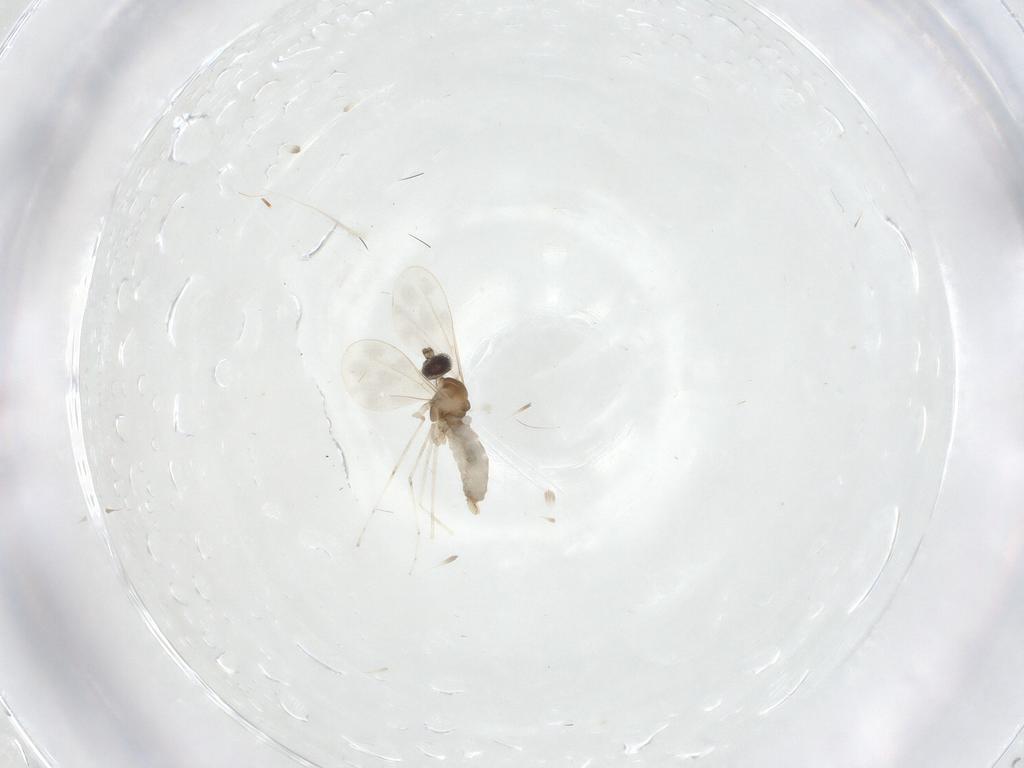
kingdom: Animalia
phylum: Arthropoda
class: Insecta
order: Diptera
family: Cecidomyiidae
